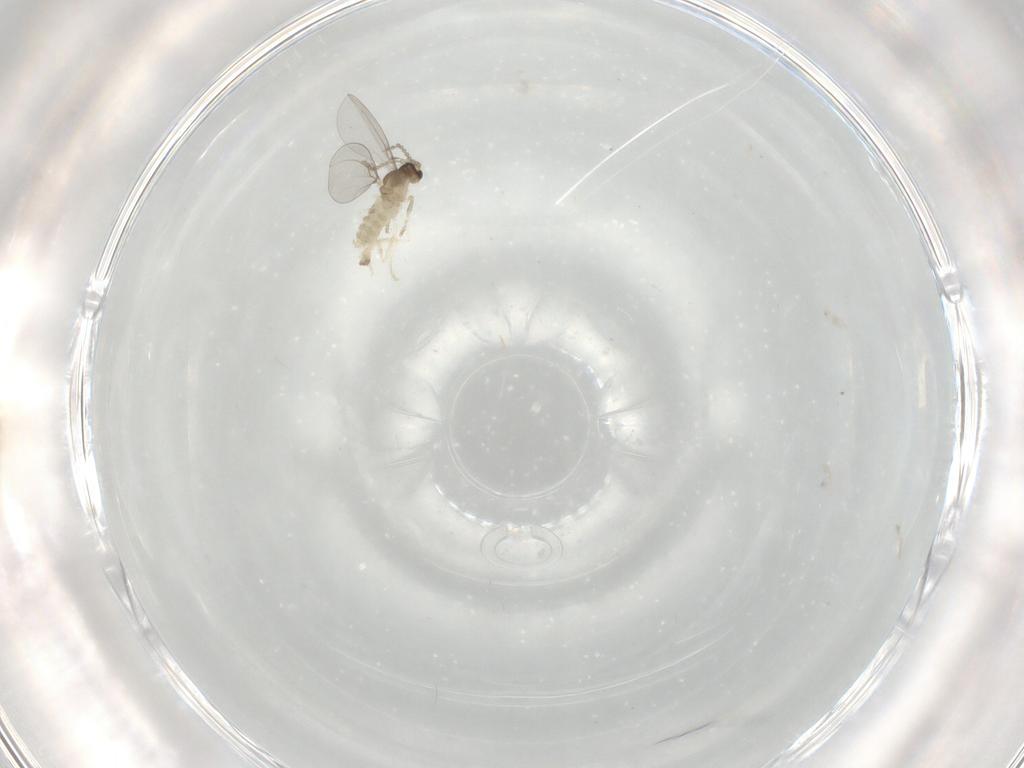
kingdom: Animalia
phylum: Arthropoda
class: Insecta
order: Diptera
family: Cecidomyiidae
